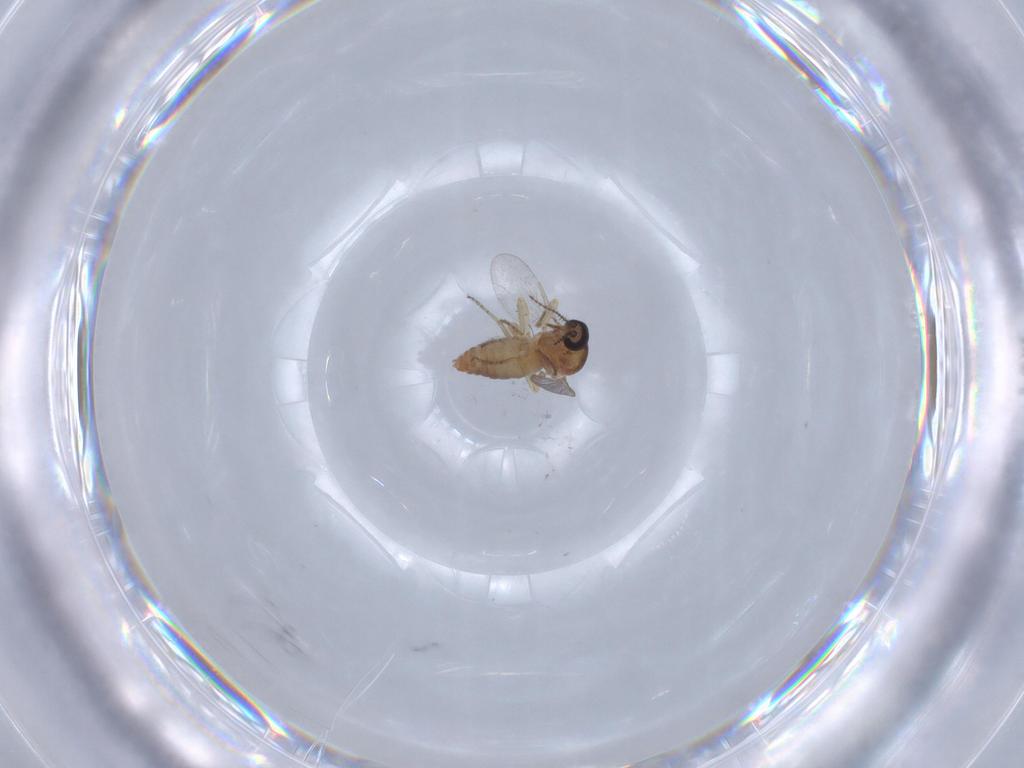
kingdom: Animalia
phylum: Arthropoda
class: Insecta
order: Diptera
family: Ceratopogonidae
